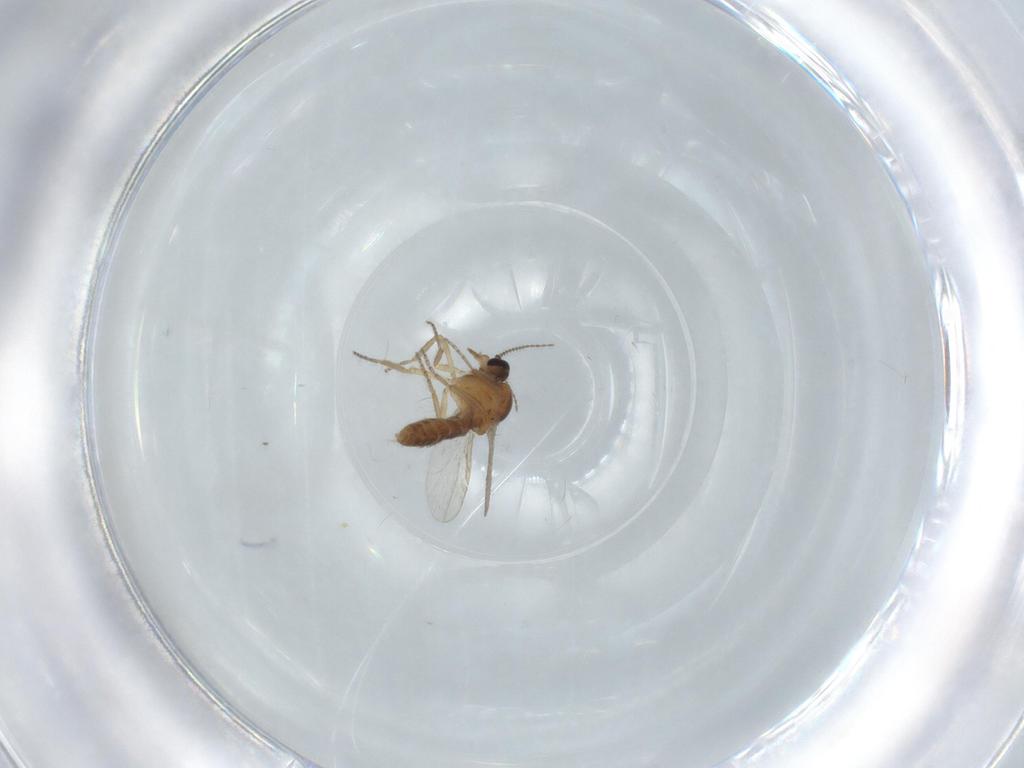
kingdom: Animalia
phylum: Arthropoda
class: Insecta
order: Diptera
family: Ceratopogonidae
